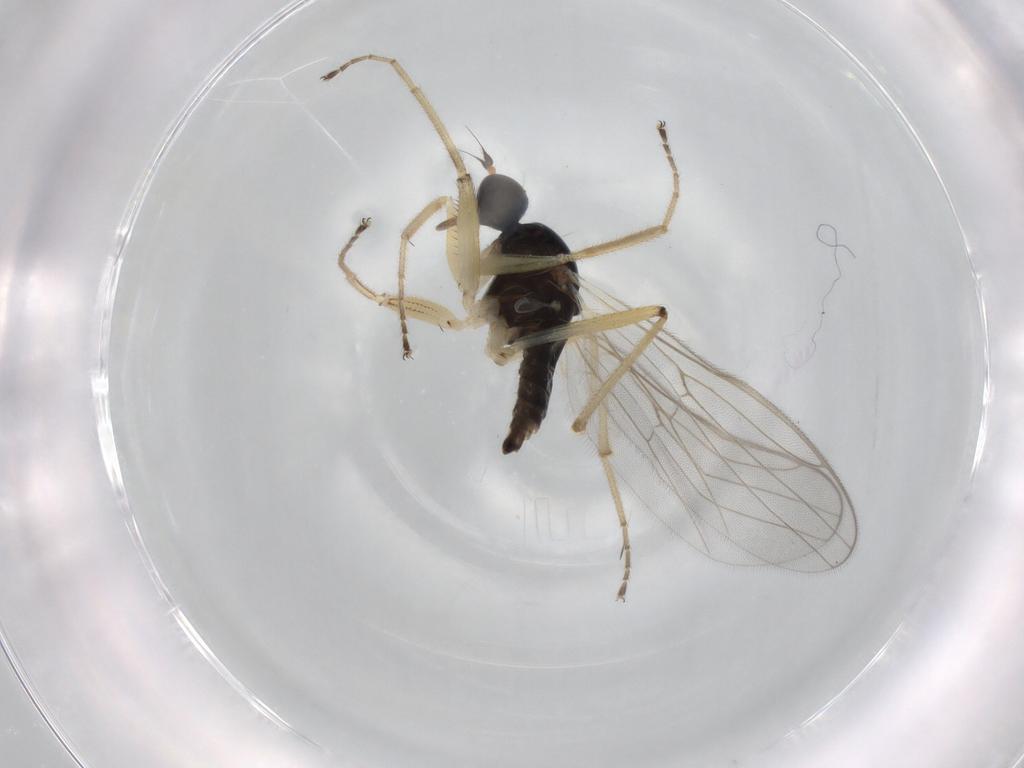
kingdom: Animalia
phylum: Arthropoda
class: Insecta
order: Diptera
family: Hybotidae
